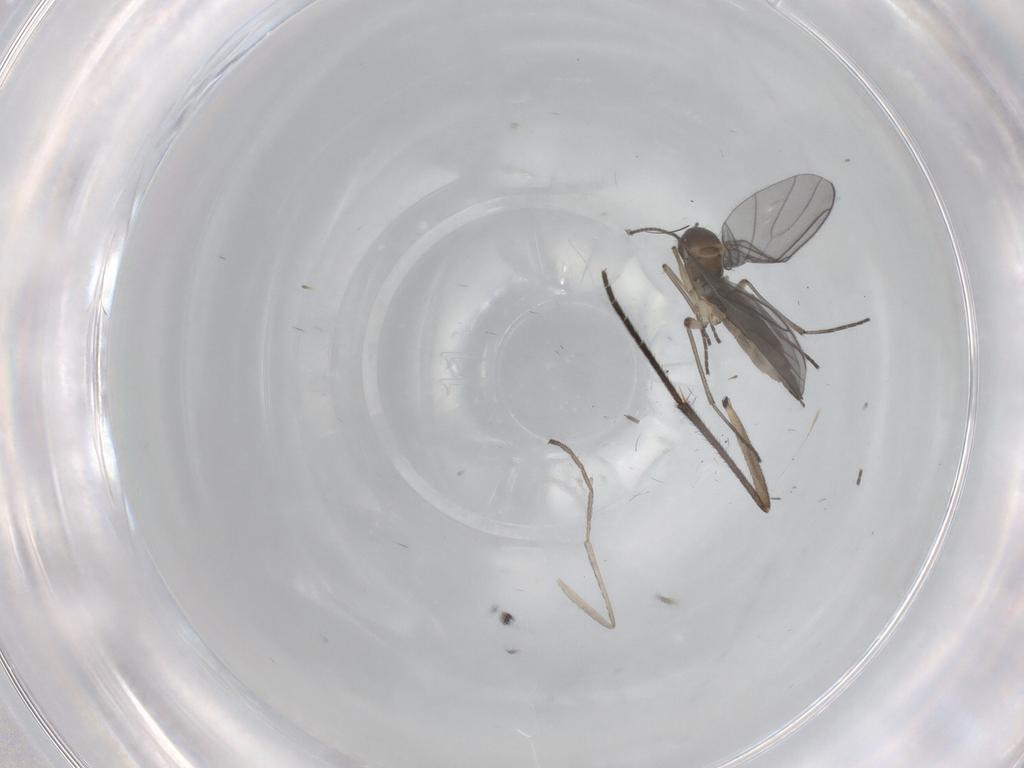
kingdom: Animalia
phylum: Arthropoda
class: Insecta
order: Diptera
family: Sciaridae
